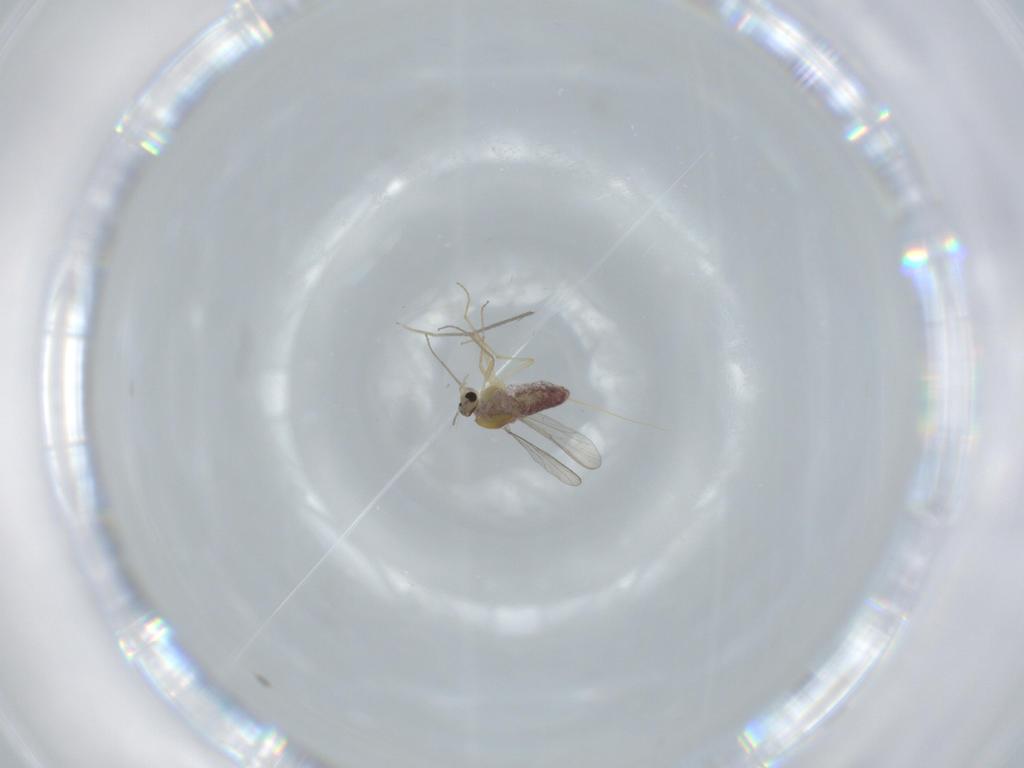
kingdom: Animalia
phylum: Arthropoda
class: Insecta
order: Diptera
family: Chironomidae
